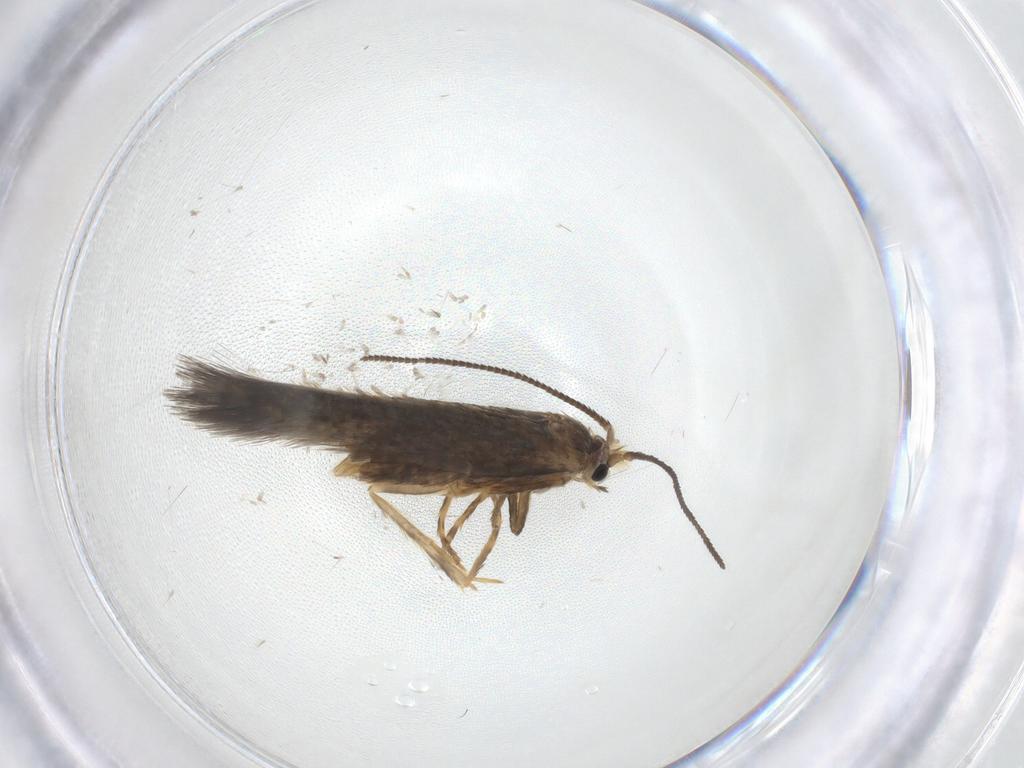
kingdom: Animalia
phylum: Arthropoda
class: Insecta
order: Lepidoptera
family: Nepticulidae
